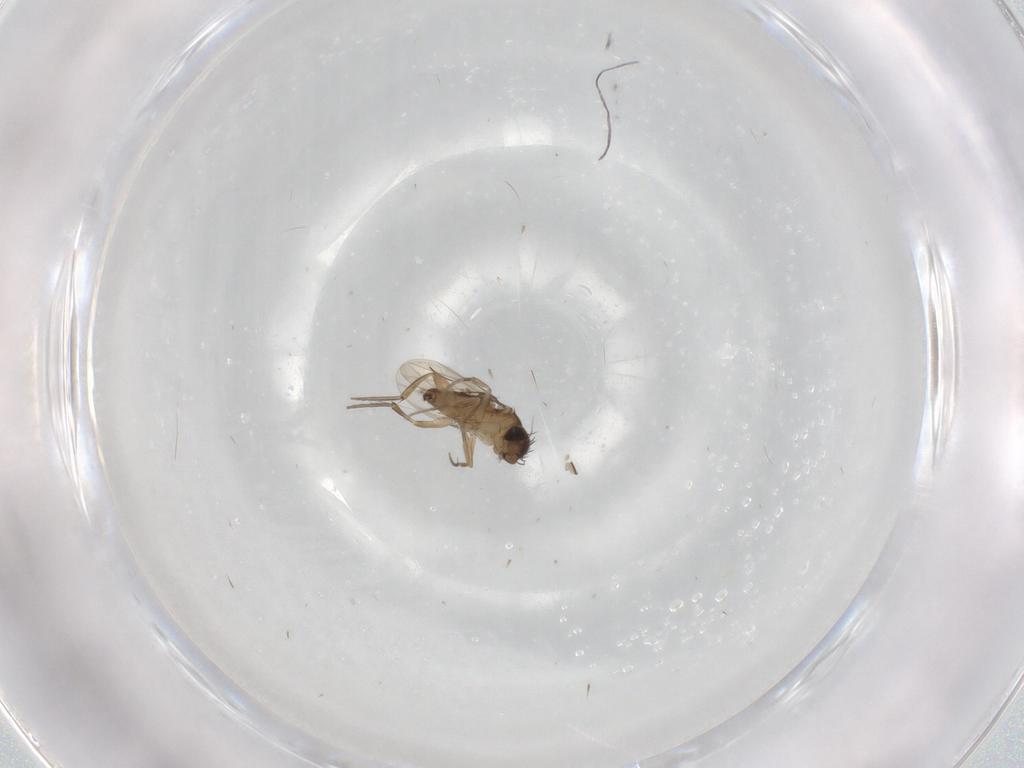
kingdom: Animalia
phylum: Arthropoda
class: Insecta
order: Diptera
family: Phoridae
